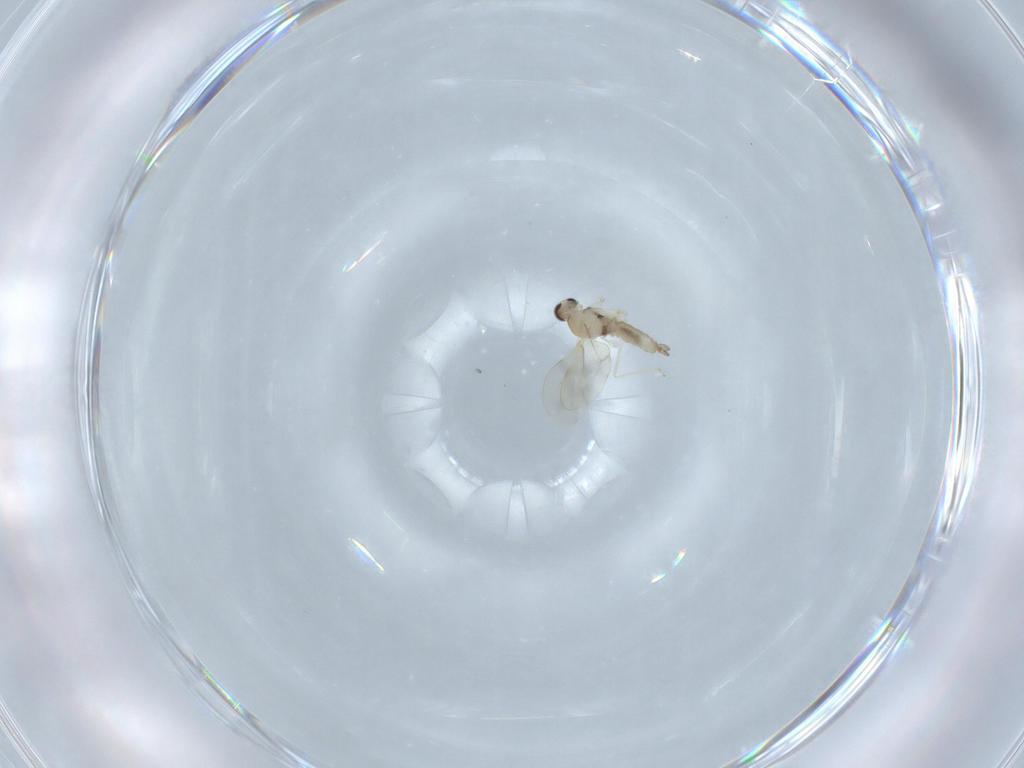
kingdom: Animalia
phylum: Arthropoda
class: Insecta
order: Diptera
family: Cecidomyiidae
